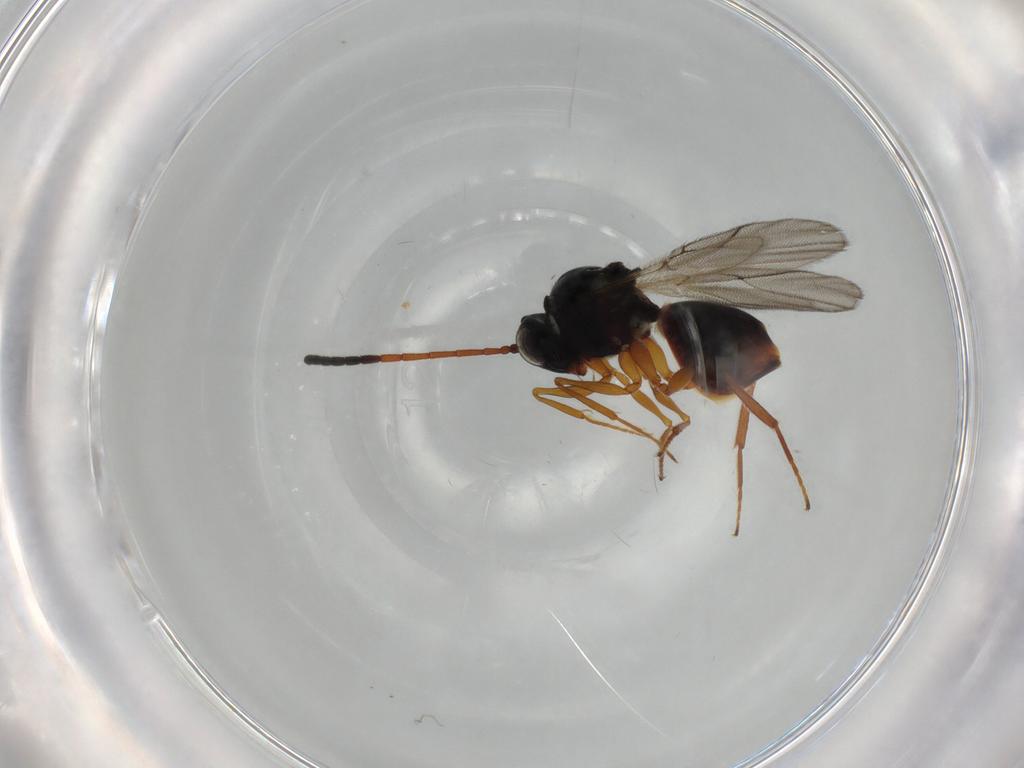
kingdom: Animalia
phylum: Arthropoda
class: Insecta
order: Hymenoptera
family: Figitidae
